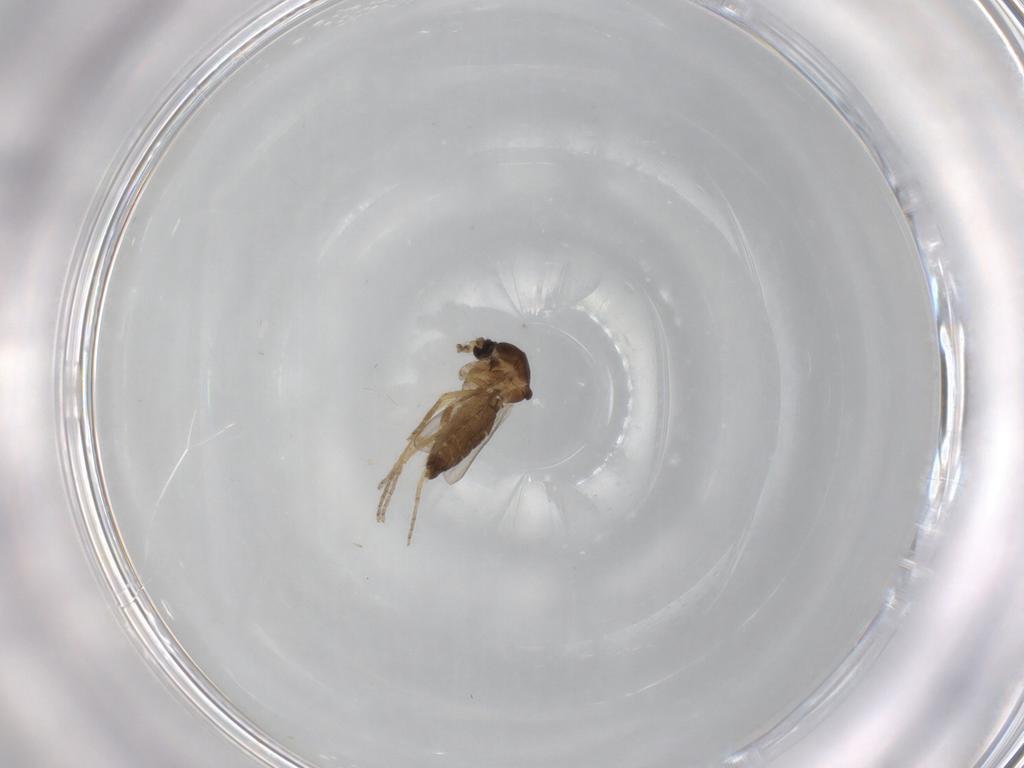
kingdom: Animalia
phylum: Arthropoda
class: Insecta
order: Diptera
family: Ceratopogonidae
